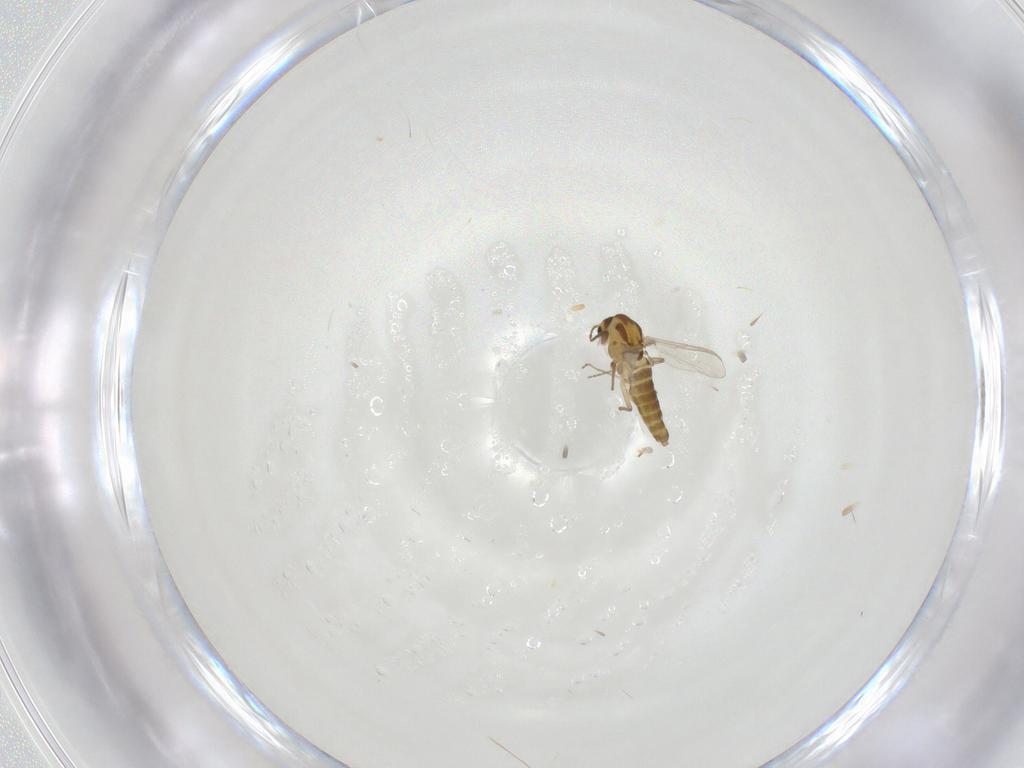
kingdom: Animalia
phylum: Arthropoda
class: Insecta
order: Diptera
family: Chironomidae
